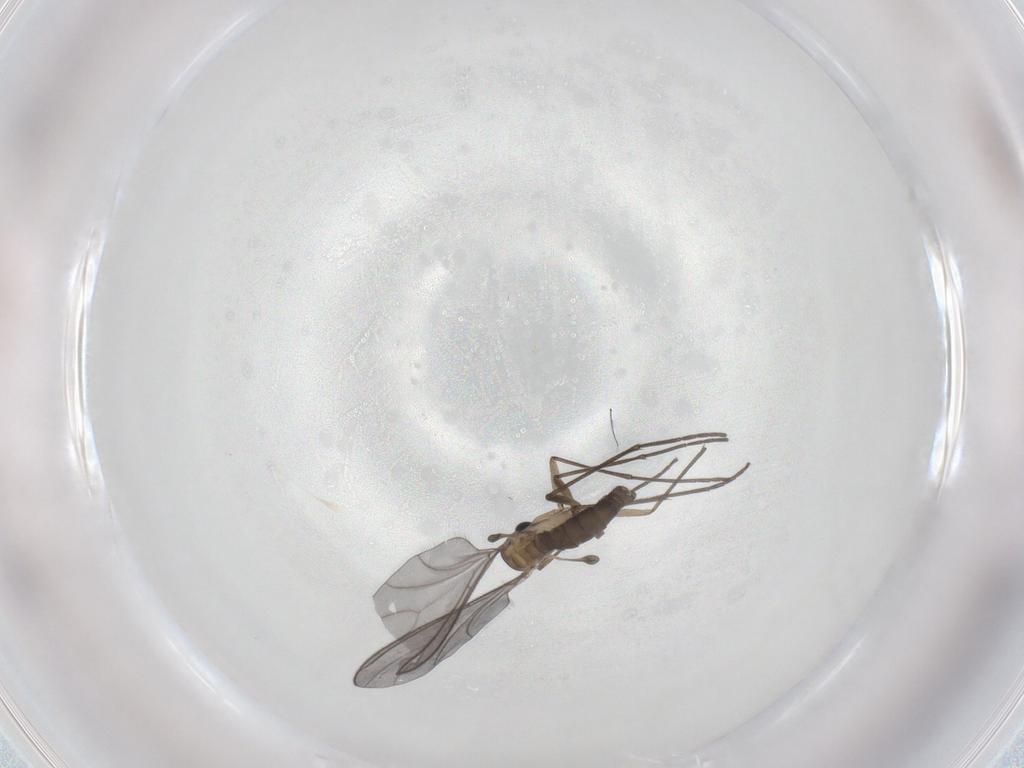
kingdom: Animalia
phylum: Arthropoda
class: Insecta
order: Diptera
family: Sciaridae
